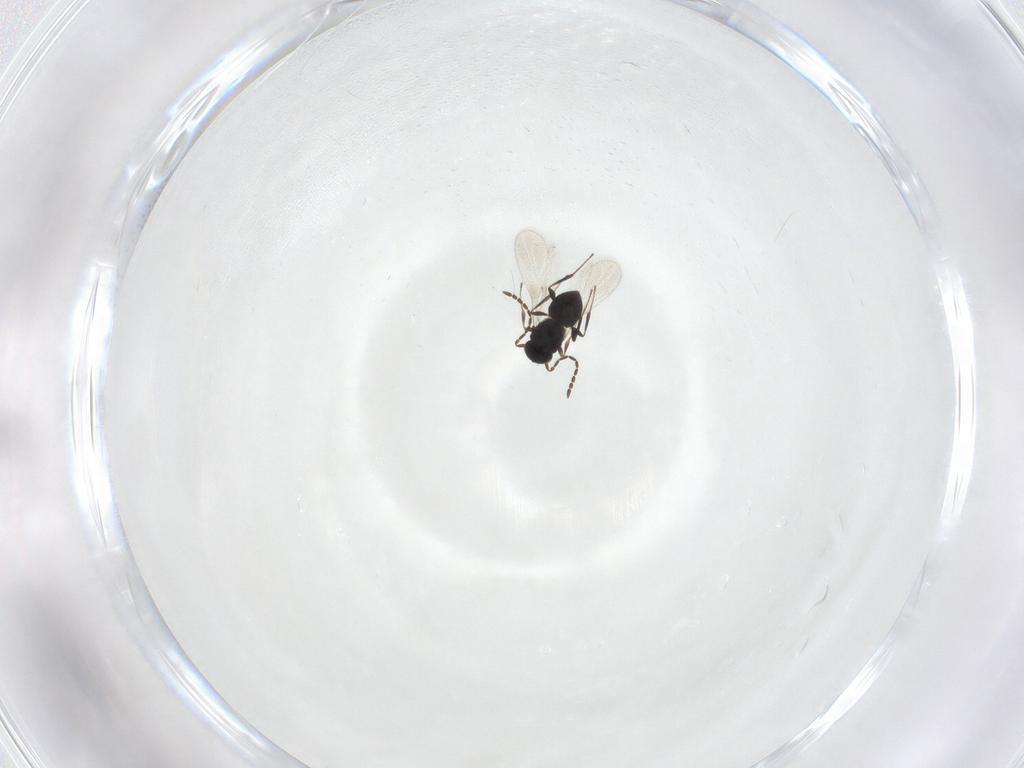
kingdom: Animalia
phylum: Arthropoda
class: Insecta
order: Hymenoptera
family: Platygastridae
